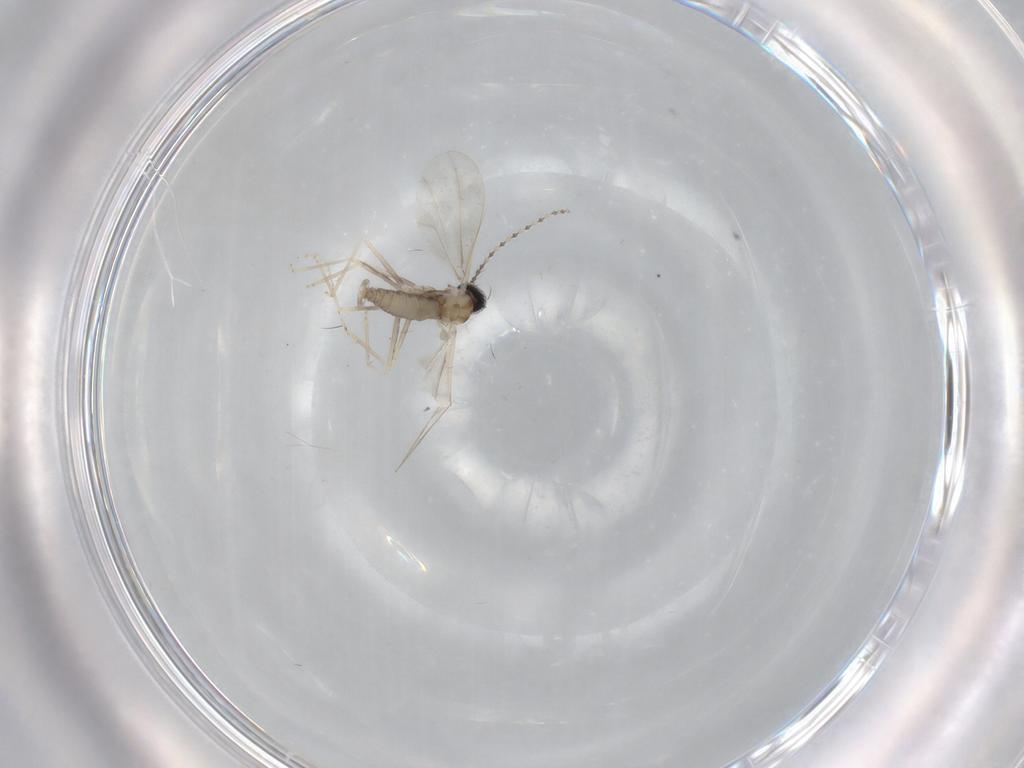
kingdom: Animalia
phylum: Arthropoda
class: Insecta
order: Diptera
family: Cecidomyiidae
